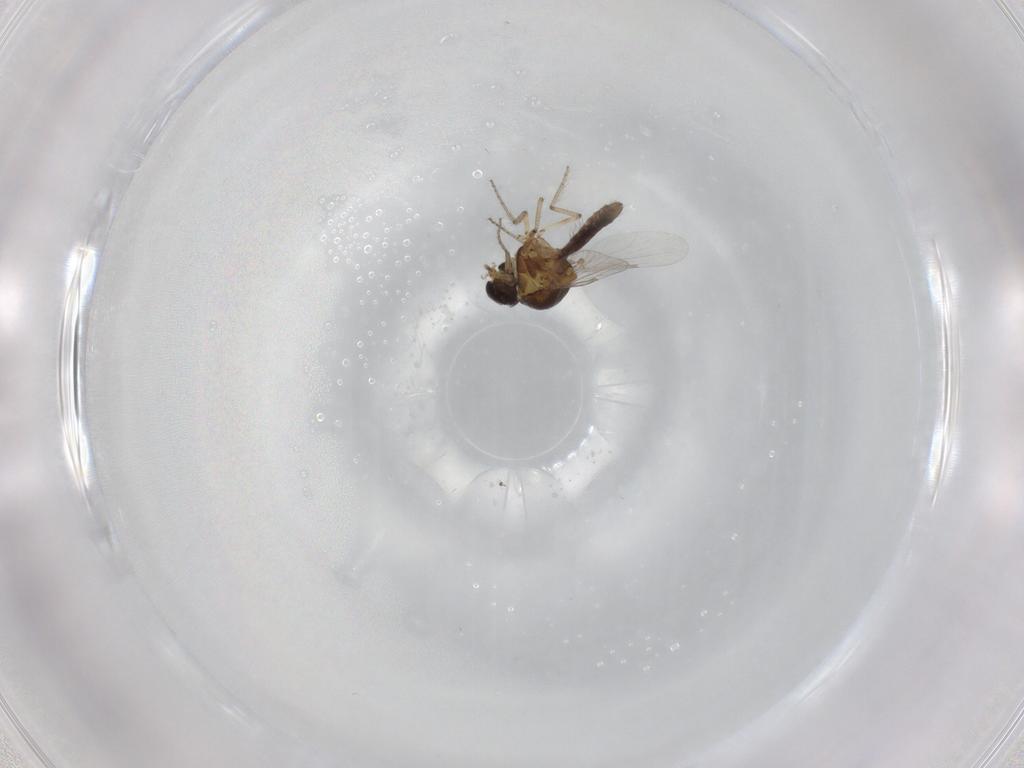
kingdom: Animalia
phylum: Arthropoda
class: Insecta
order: Diptera
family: Ceratopogonidae
